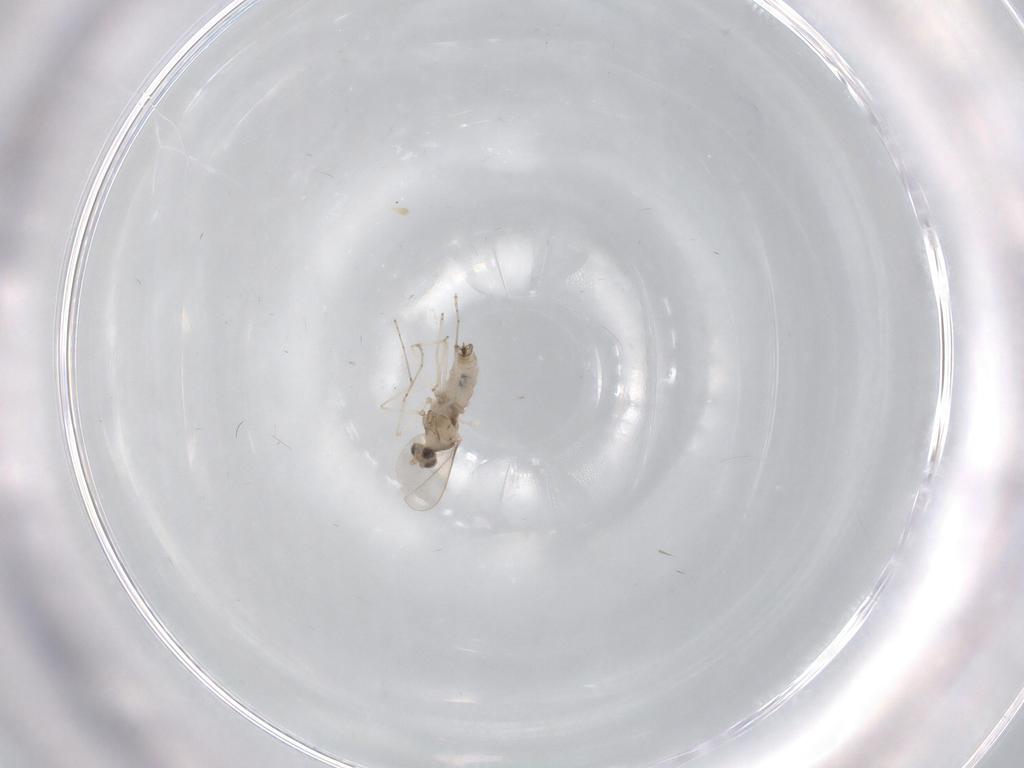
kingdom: Animalia
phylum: Arthropoda
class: Insecta
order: Diptera
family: Cecidomyiidae
